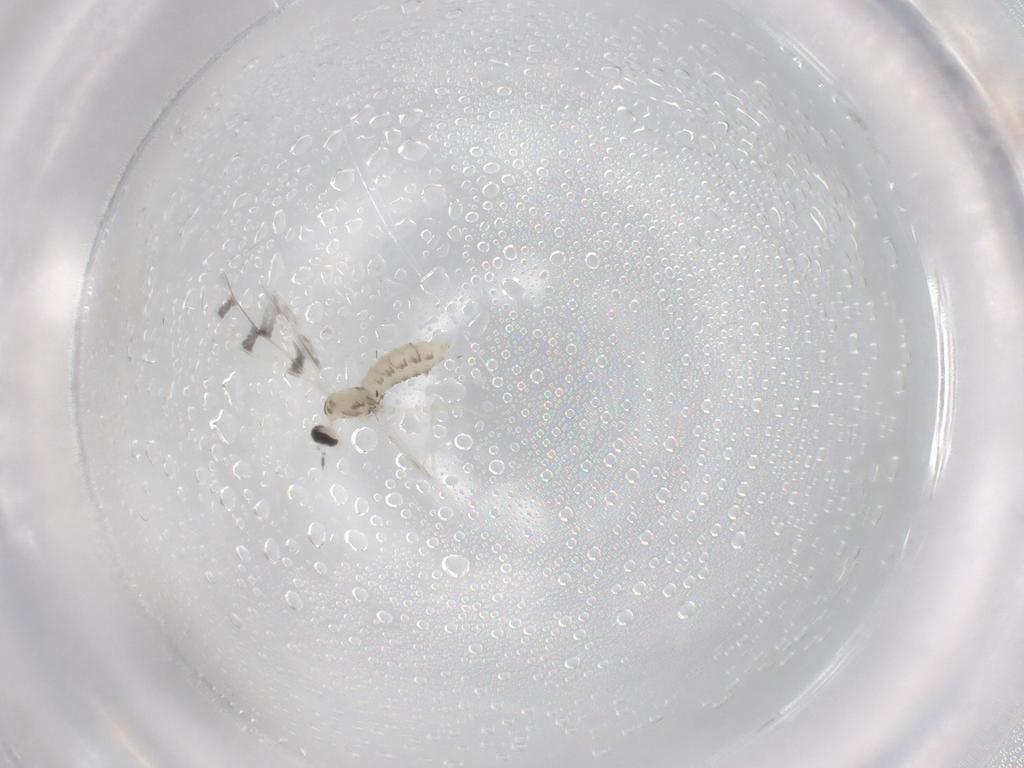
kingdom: Animalia
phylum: Arthropoda
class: Insecta
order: Diptera
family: Cecidomyiidae
